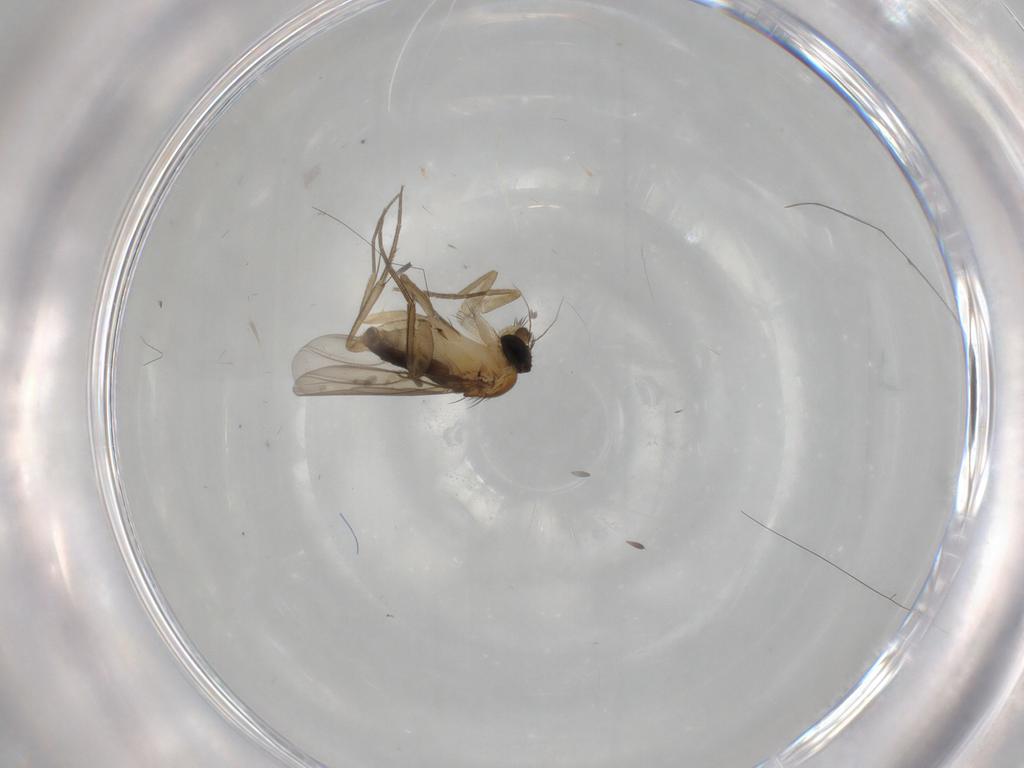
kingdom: Animalia
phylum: Arthropoda
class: Insecta
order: Diptera
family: Phoridae
